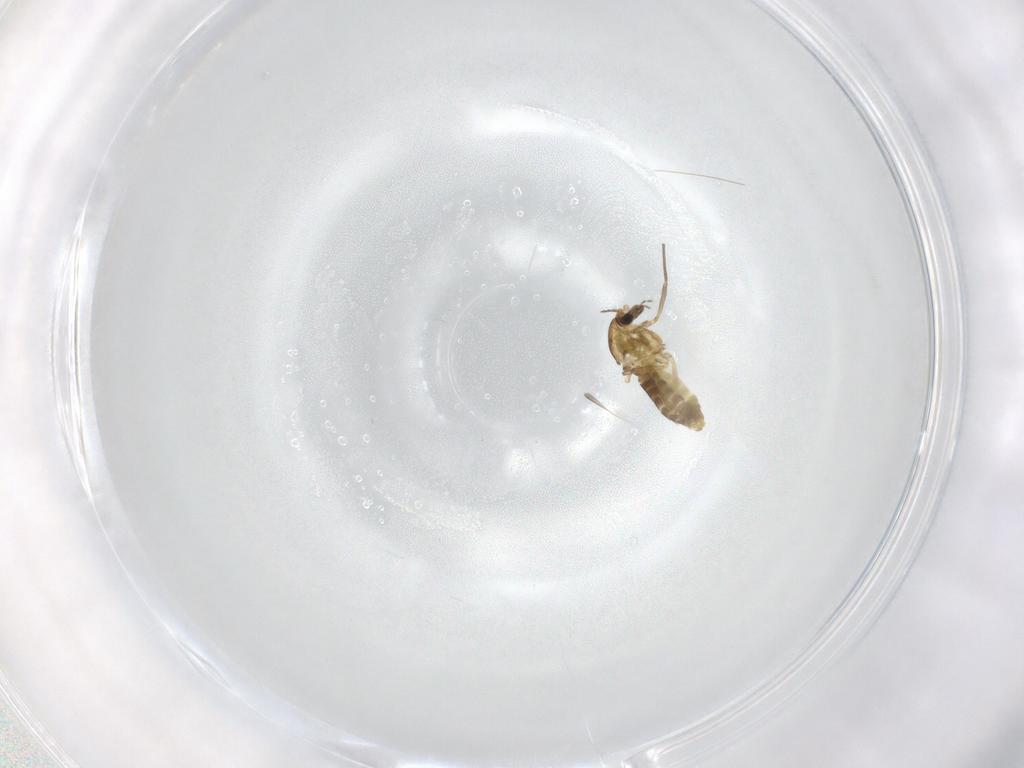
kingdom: Animalia
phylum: Arthropoda
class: Insecta
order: Diptera
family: Chironomidae
